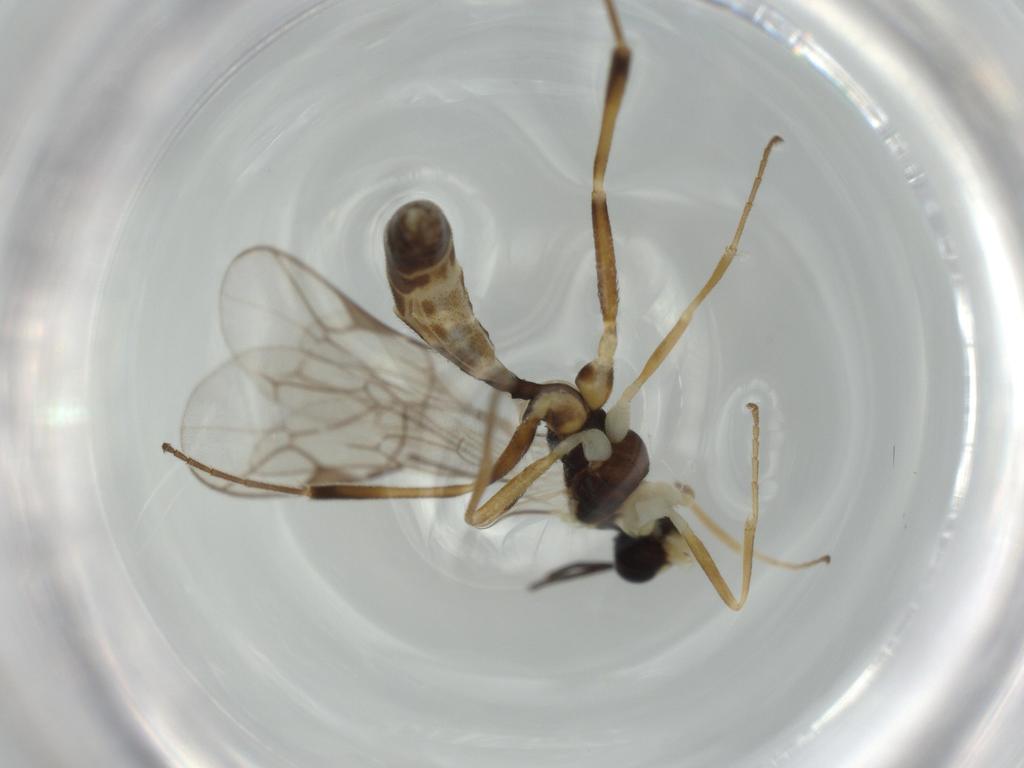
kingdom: Animalia
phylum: Arthropoda
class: Insecta
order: Hymenoptera
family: Ichneumonidae
